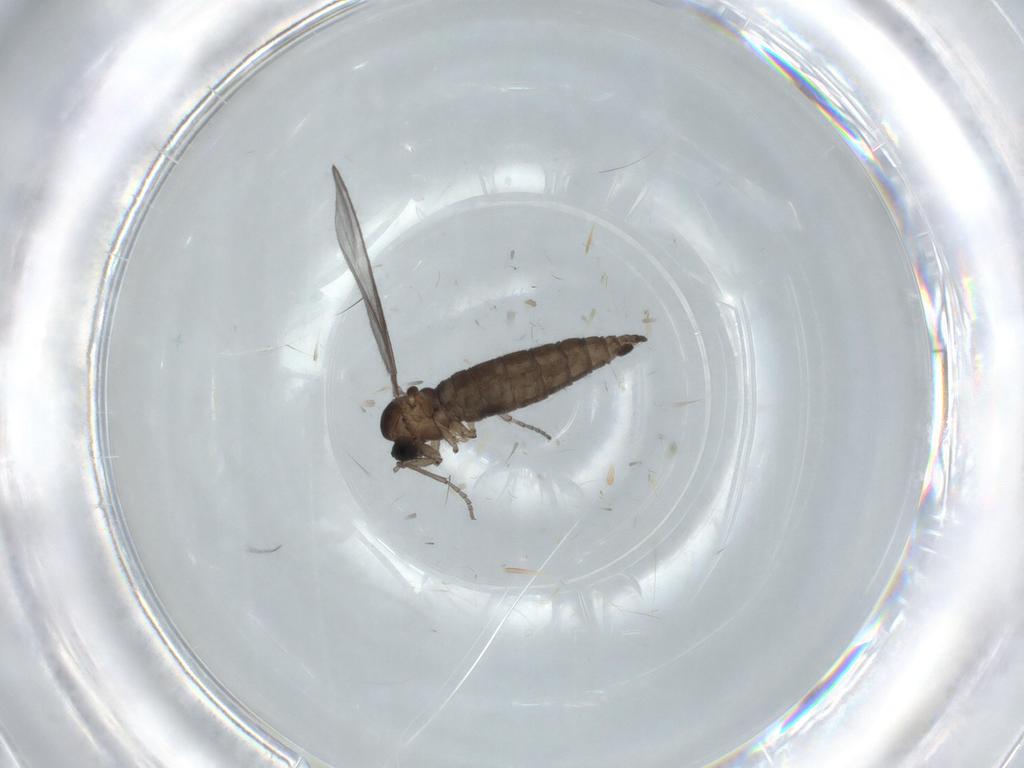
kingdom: Animalia
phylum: Arthropoda
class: Insecta
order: Diptera
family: Sciaridae
